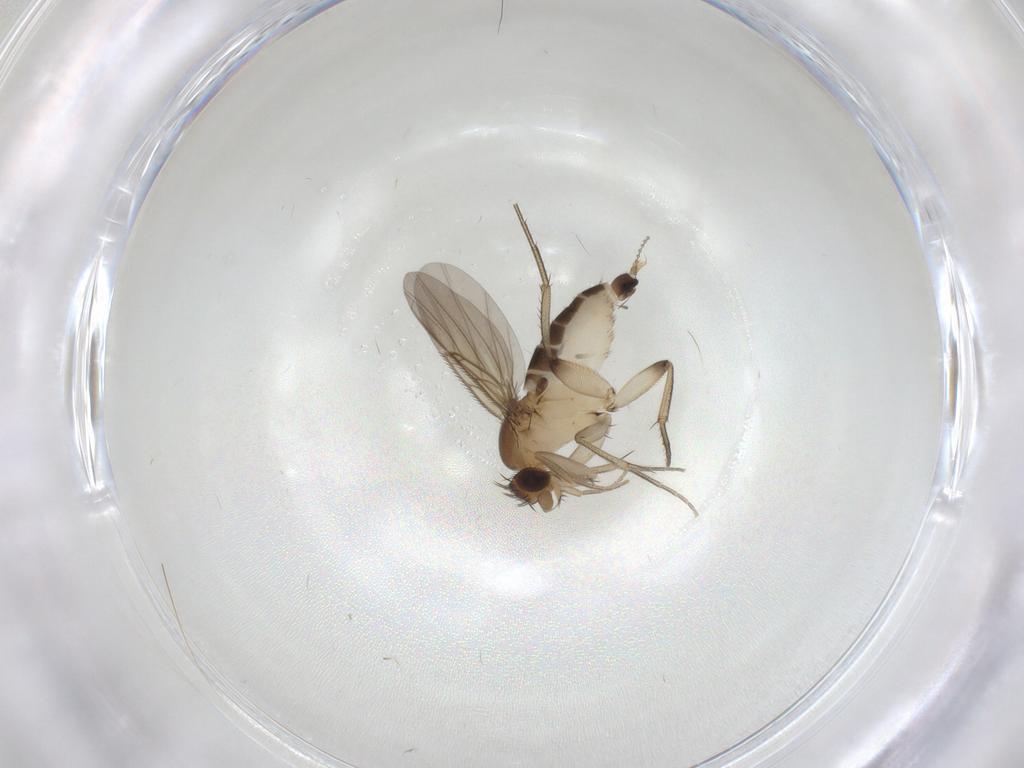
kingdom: Animalia
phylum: Arthropoda
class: Insecta
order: Diptera
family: Phoridae
